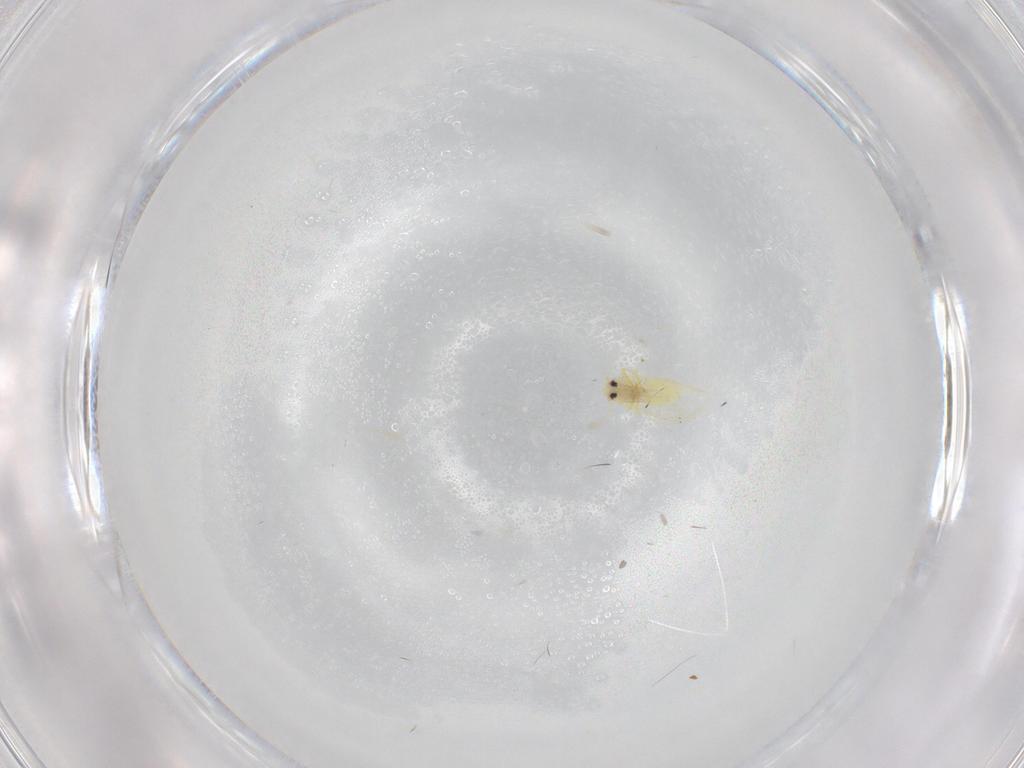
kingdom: Animalia
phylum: Arthropoda
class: Insecta
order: Hemiptera
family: Aleyrodidae
